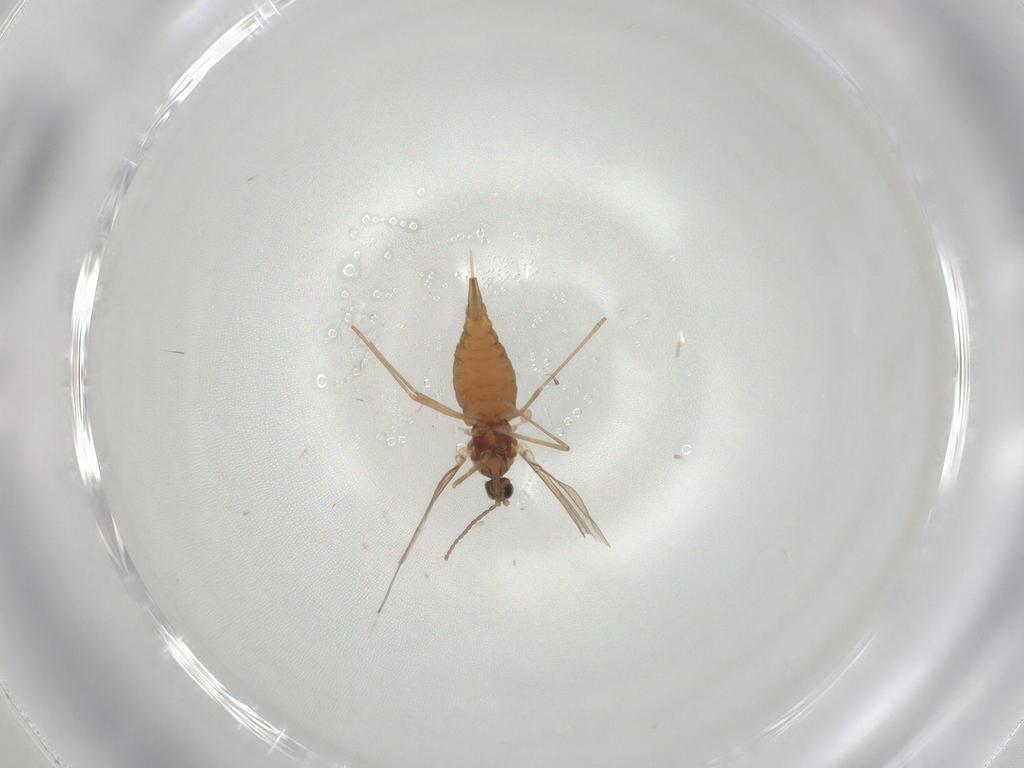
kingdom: Animalia
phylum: Arthropoda
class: Insecta
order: Diptera
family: Cecidomyiidae
